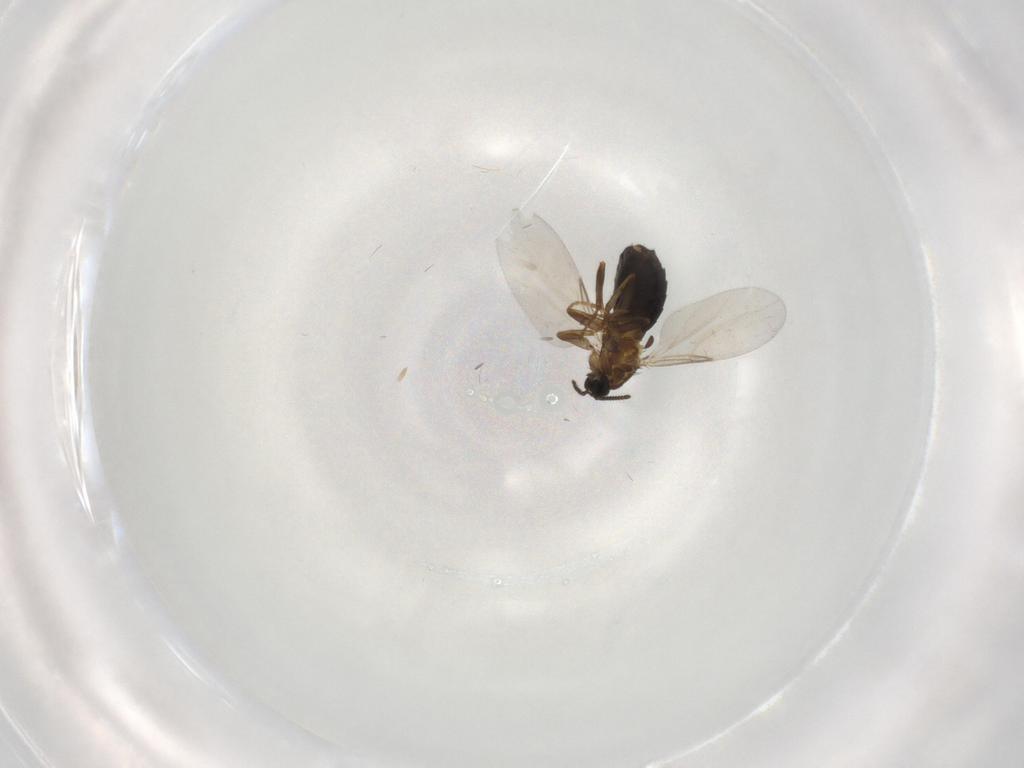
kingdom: Animalia
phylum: Arthropoda
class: Insecta
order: Diptera
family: Scatopsidae
